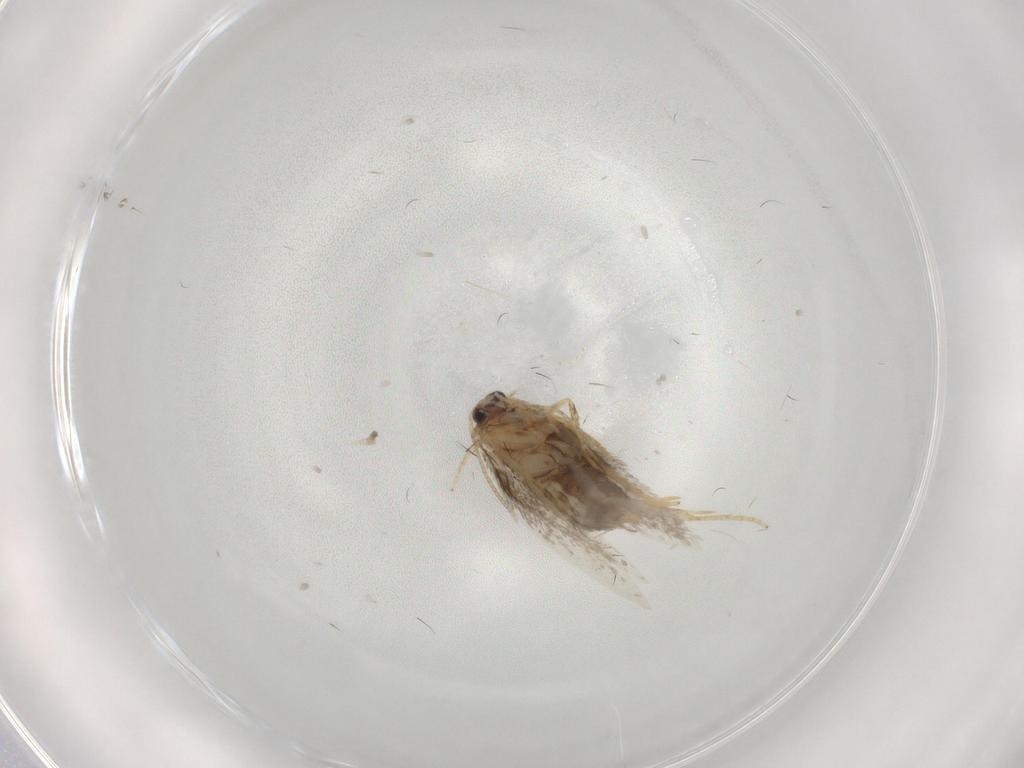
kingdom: Animalia
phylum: Arthropoda
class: Insecta
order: Lepidoptera
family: Nepticulidae
